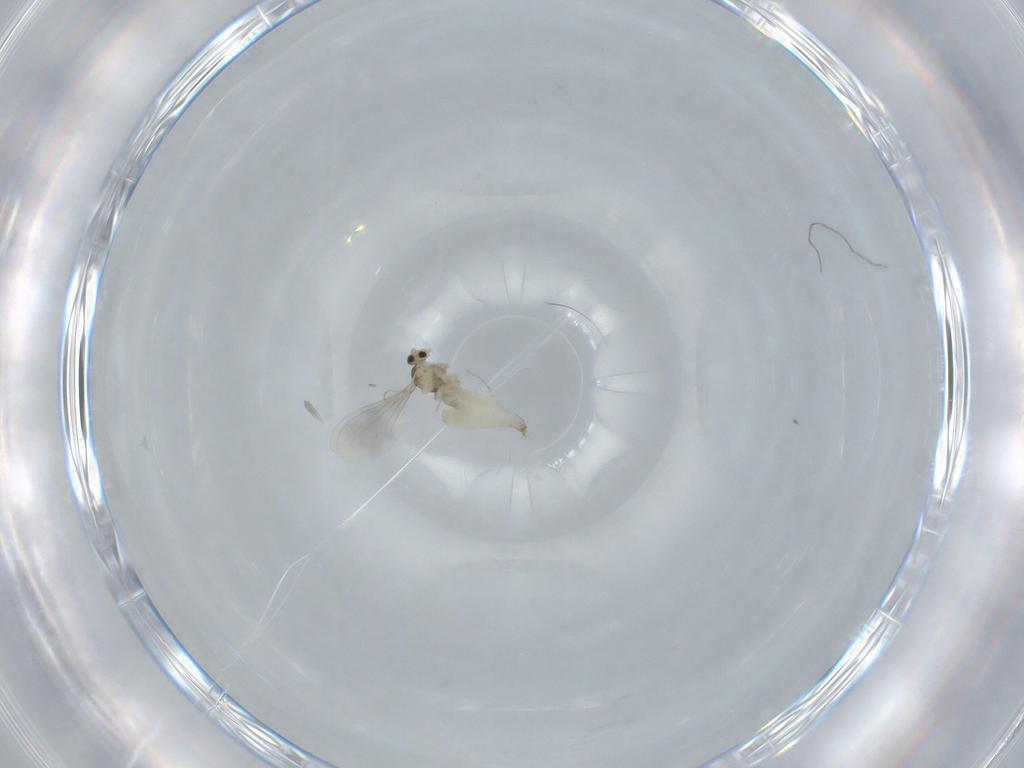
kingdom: Animalia
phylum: Arthropoda
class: Insecta
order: Diptera
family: Cecidomyiidae
